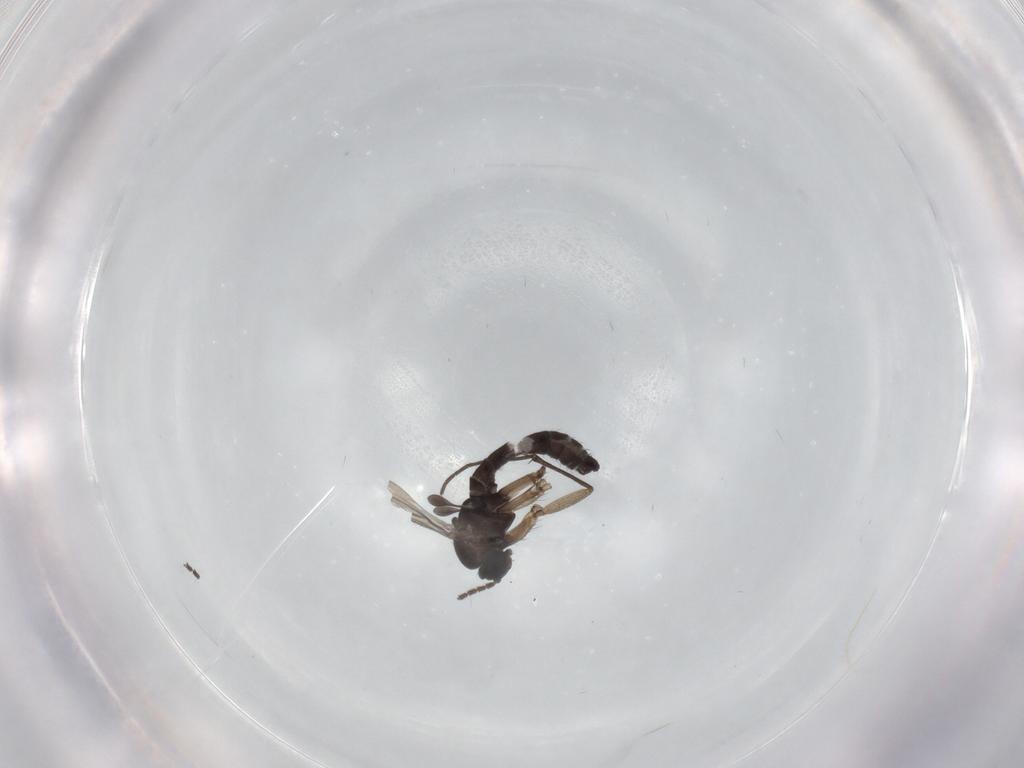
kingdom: Animalia
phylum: Arthropoda
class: Insecta
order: Diptera
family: Sciaridae
